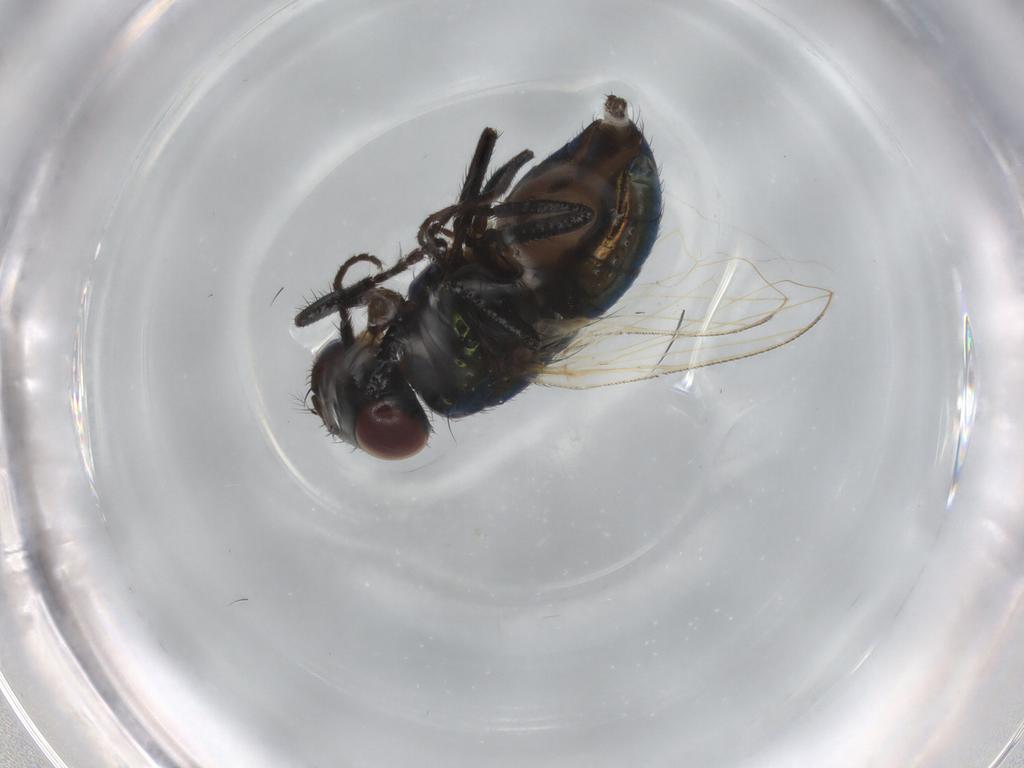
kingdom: Animalia
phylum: Arthropoda
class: Insecta
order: Diptera
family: Muscidae
